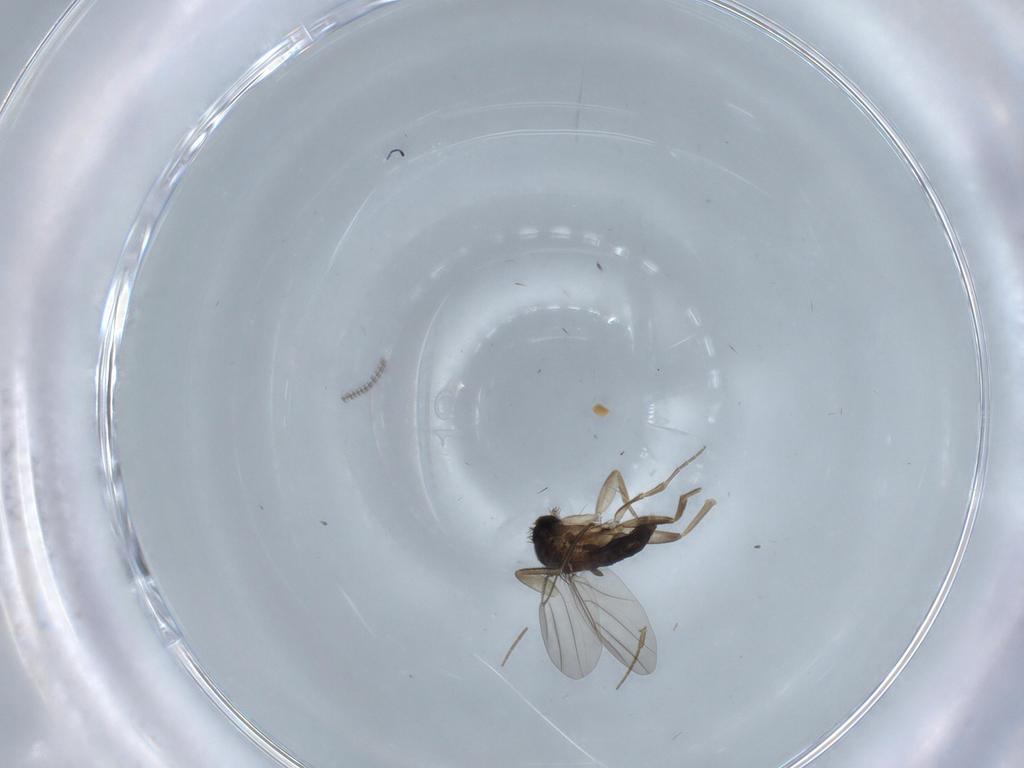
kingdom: Animalia
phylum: Arthropoda
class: Insecta
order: Diptera
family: Phoridae
